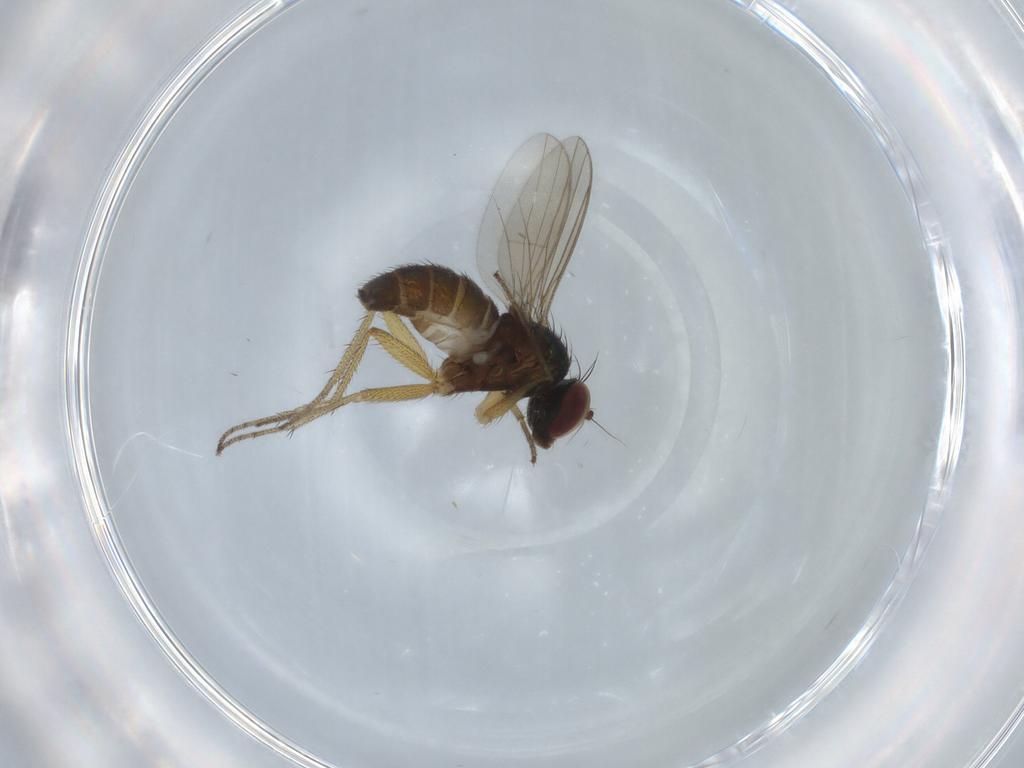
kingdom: Animalia
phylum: Arthropoda
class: Insecta
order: Diptera
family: Dolichopodidae
